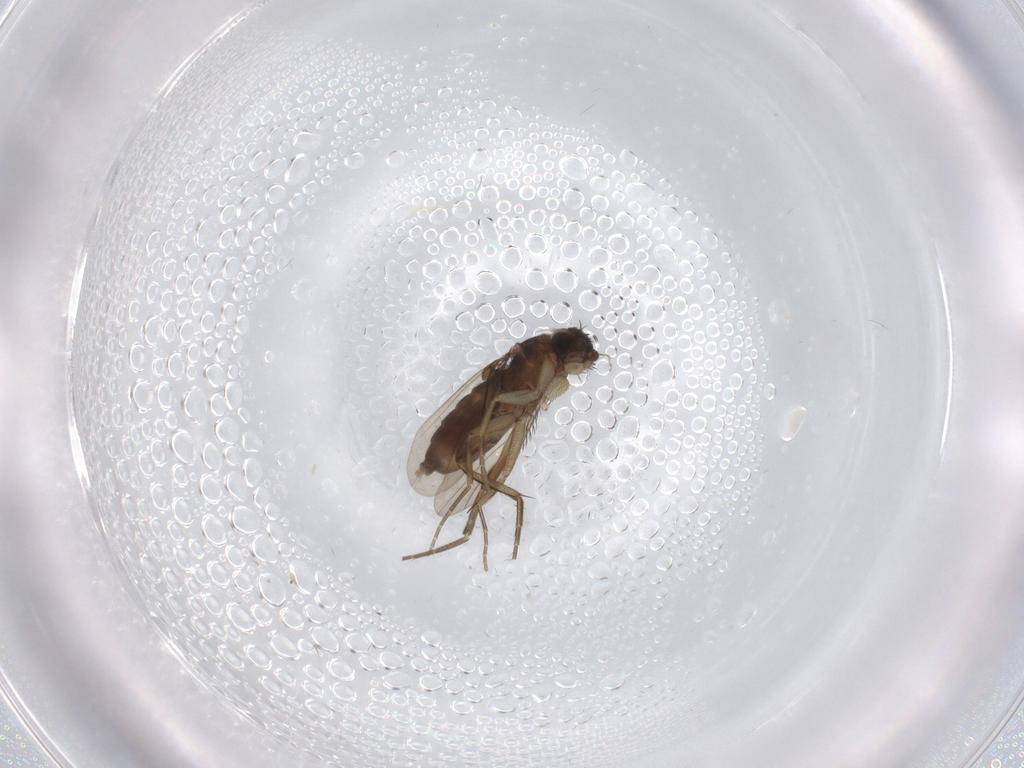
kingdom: Animalia
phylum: Arthropoda
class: Insecta
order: Diptera
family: Phoridae
